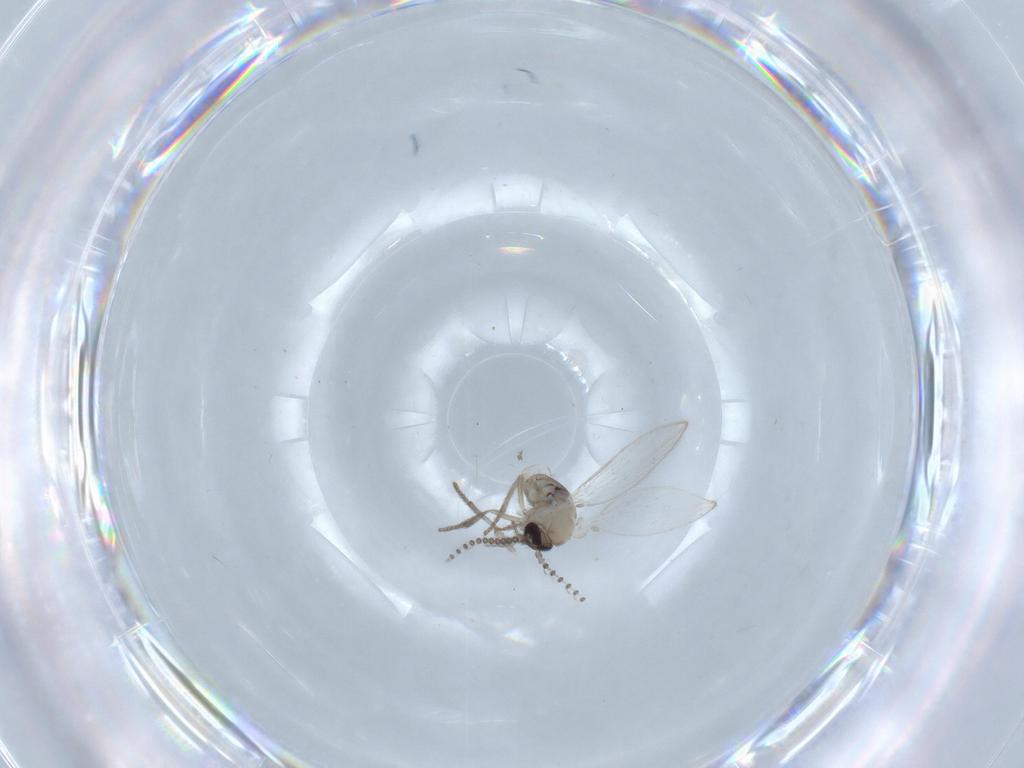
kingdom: Animalia
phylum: Arthropoda
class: Insecta
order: Diptera
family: Psychodidae
